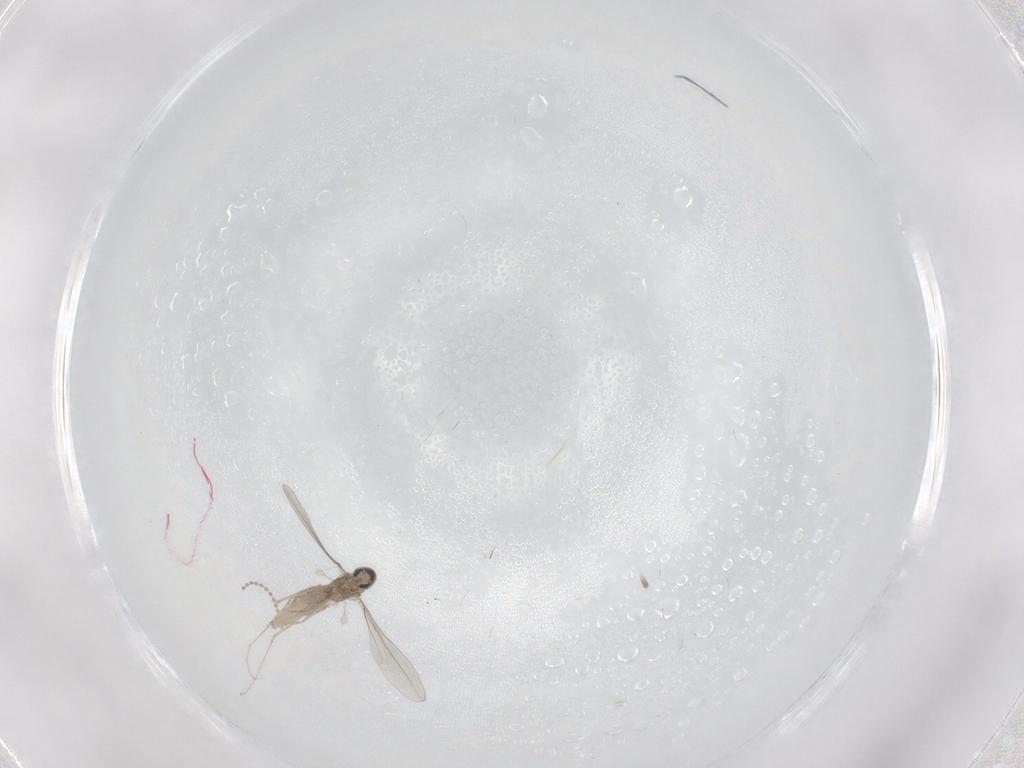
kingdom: Animalia
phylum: Arthropoda
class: Insecta
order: Diptera
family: Cecidomyiidae
